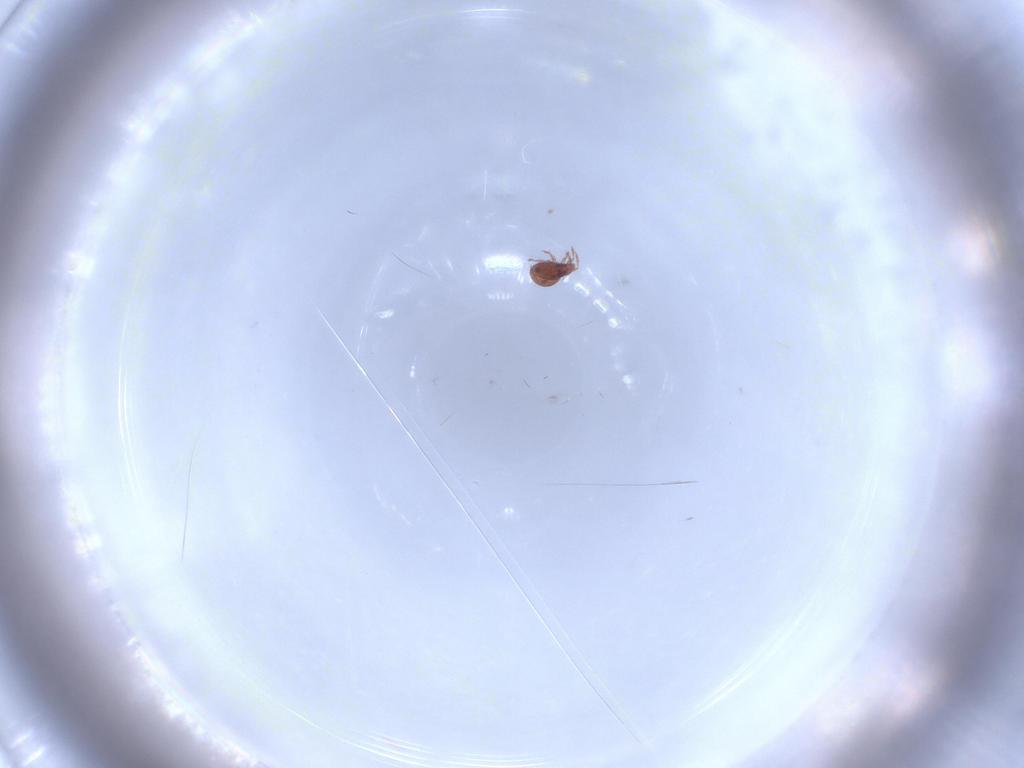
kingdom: Animalia
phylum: Arthropoda
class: Insecta
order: Diptera
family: Sciaridae
